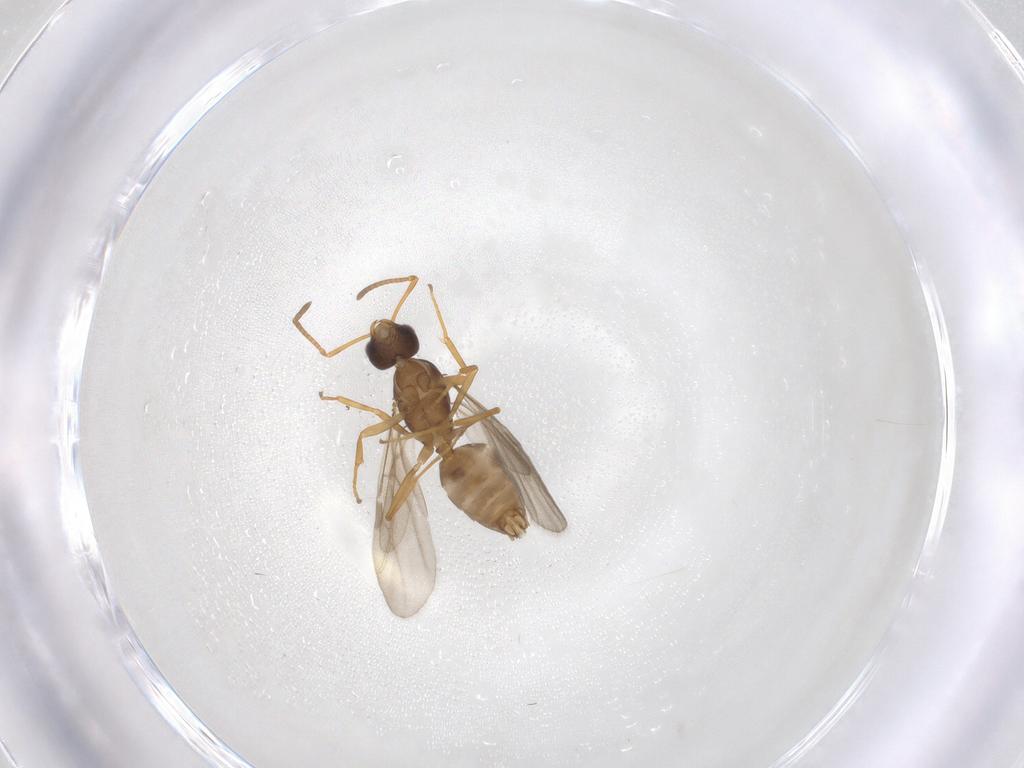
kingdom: Animalia
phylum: Arthropoda
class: Insecta
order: Hymenoptera
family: Formicidae
